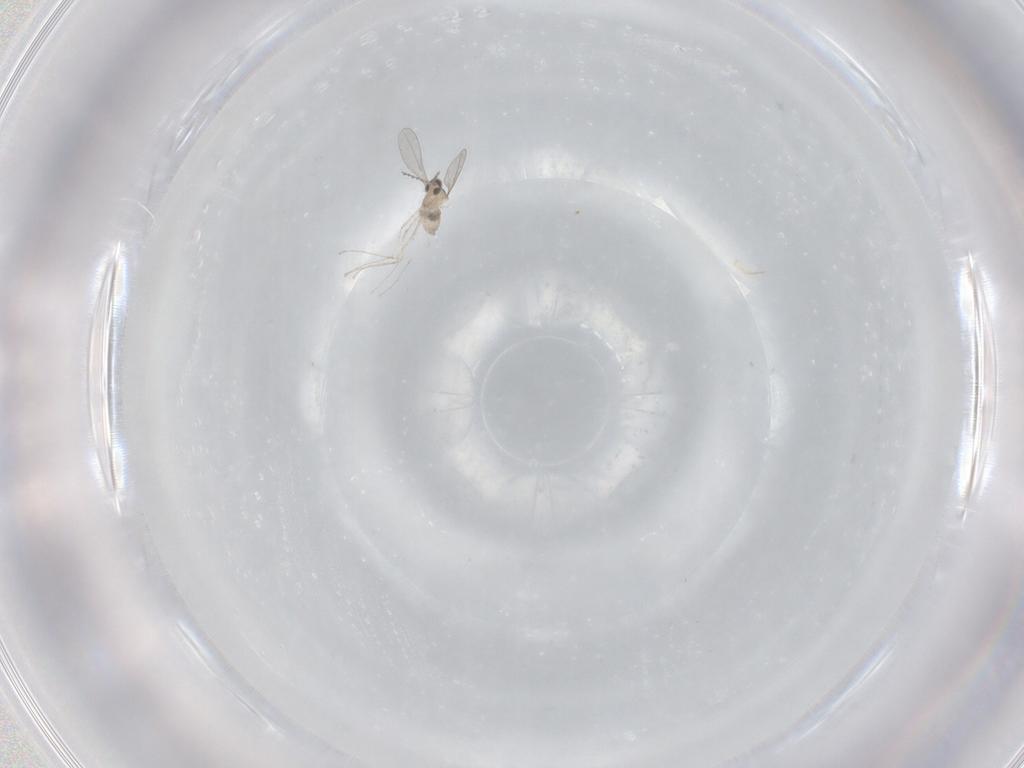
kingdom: Animalia
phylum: Arthropoda
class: Insecta
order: Diptera
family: Cecidomyiidae
